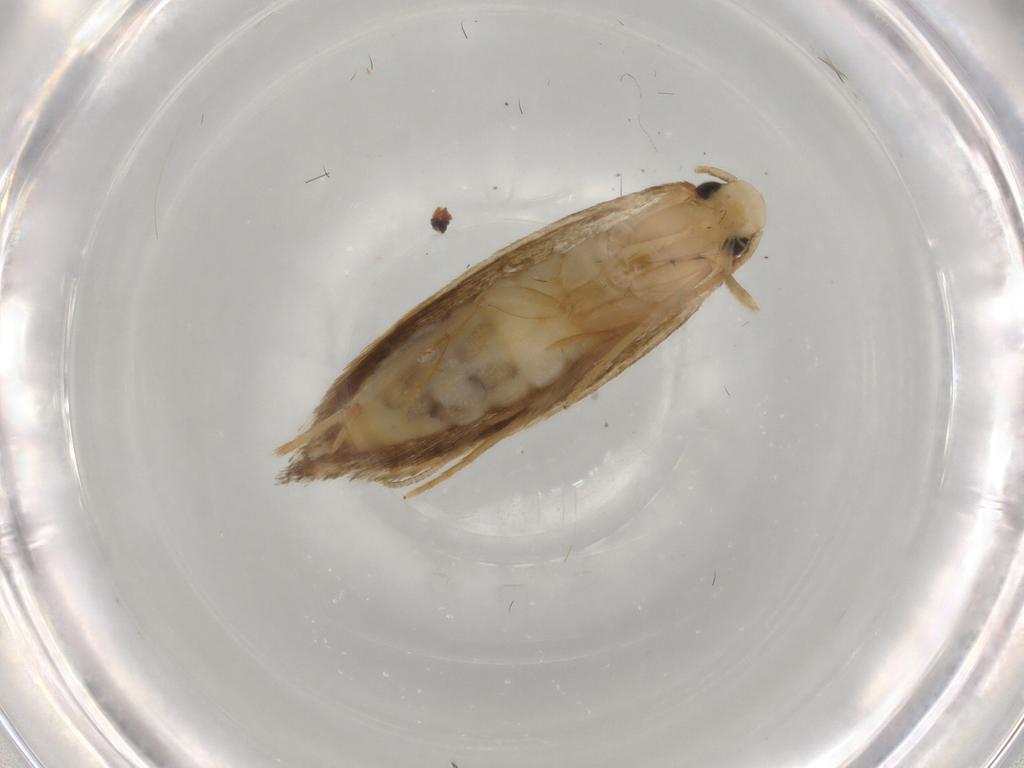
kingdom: Animalia
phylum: Arthropoda
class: Insecta
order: Lepidoptera
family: Tineidae
